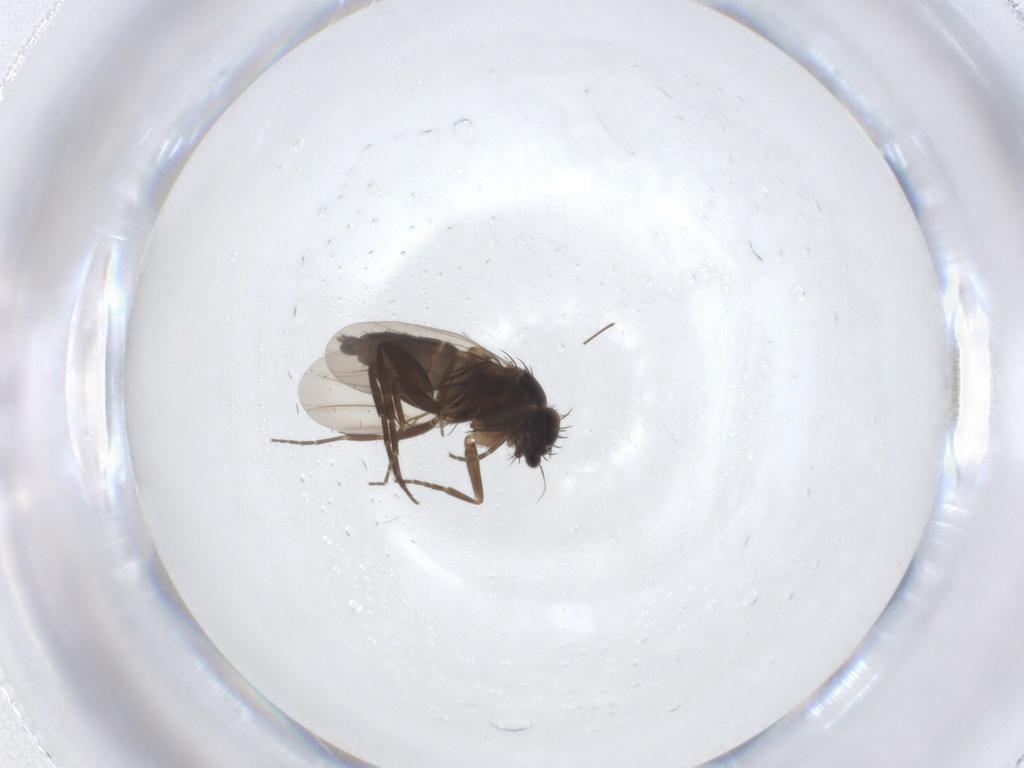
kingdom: Animalia
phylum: Arthropoda
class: Insecta
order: Diptera
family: Phoridae
